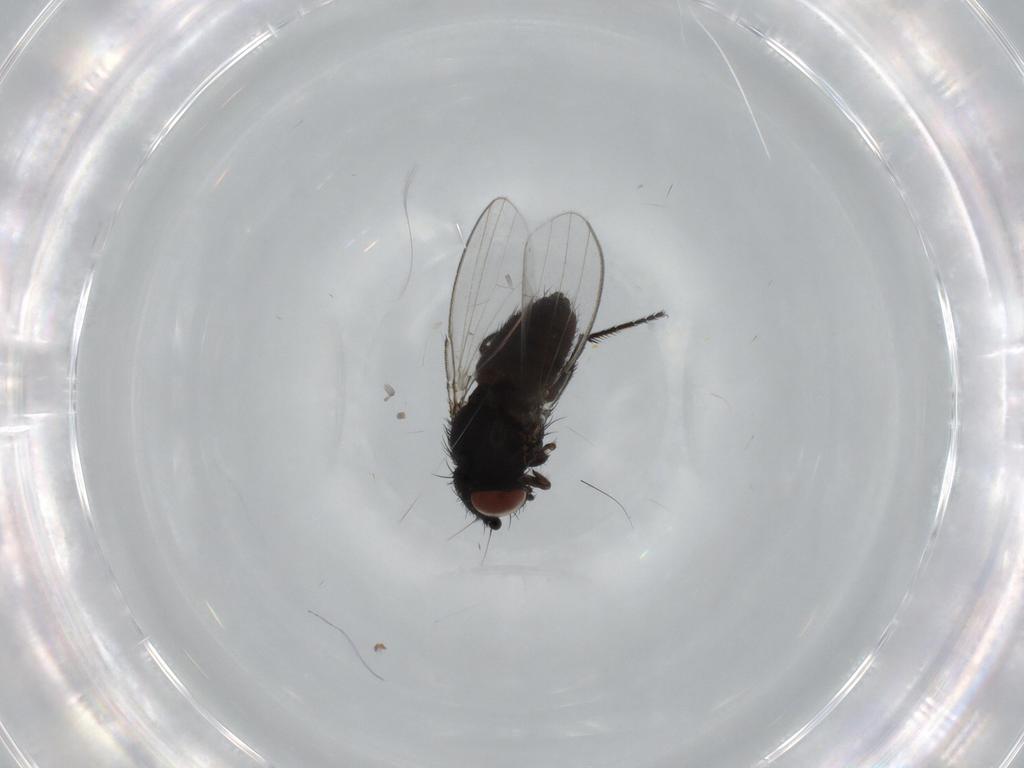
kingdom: Animalia
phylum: Arthropoda
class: Insecta
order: Diptera
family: Milichiidae
